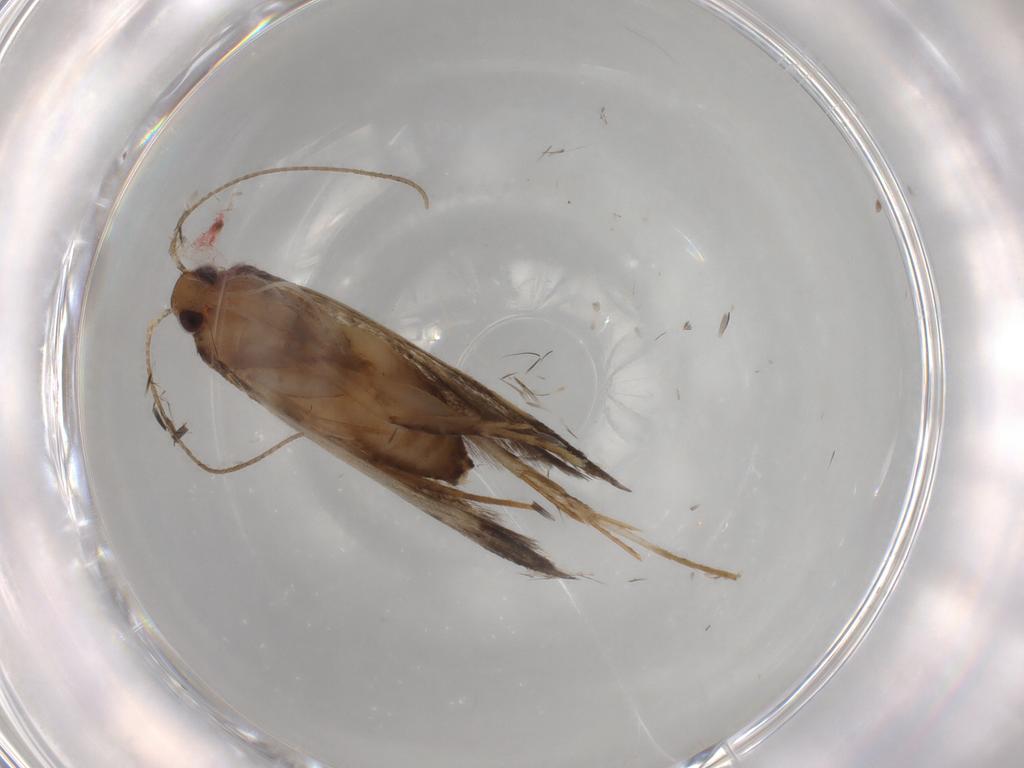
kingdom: Animalia
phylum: Arthropoda
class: Insecta
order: Lepidoptera
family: Cosmopterigidae
